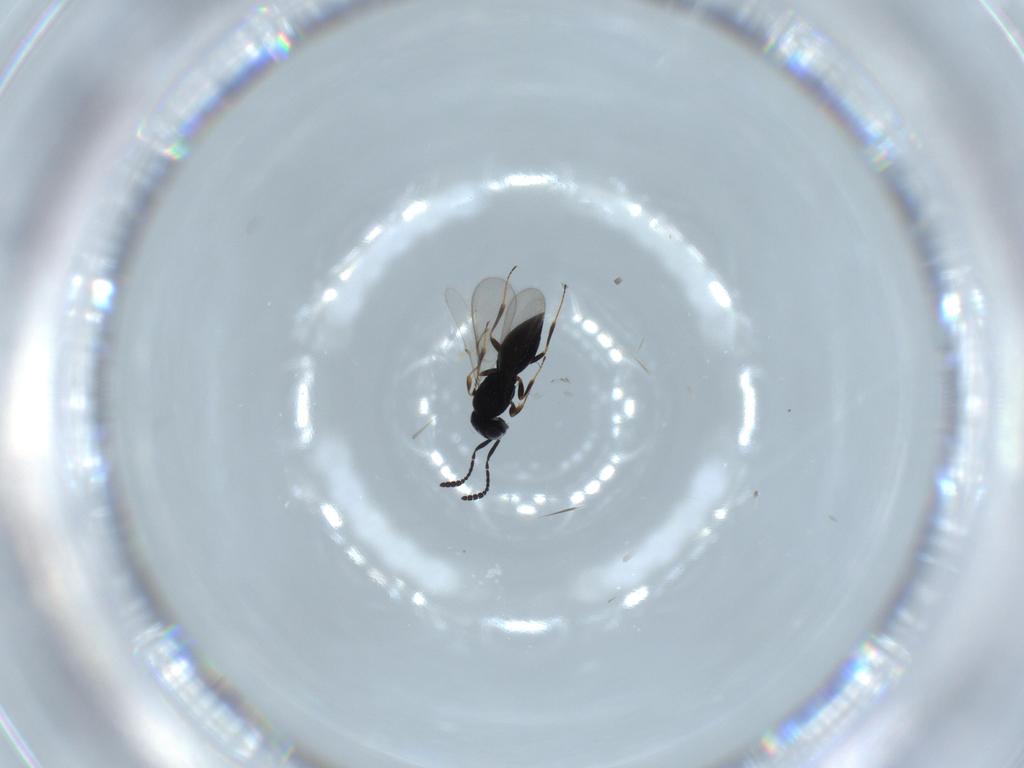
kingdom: Animalia
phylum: Arthropoda
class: Insecta
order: Hymenoptera
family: Scelionidae
